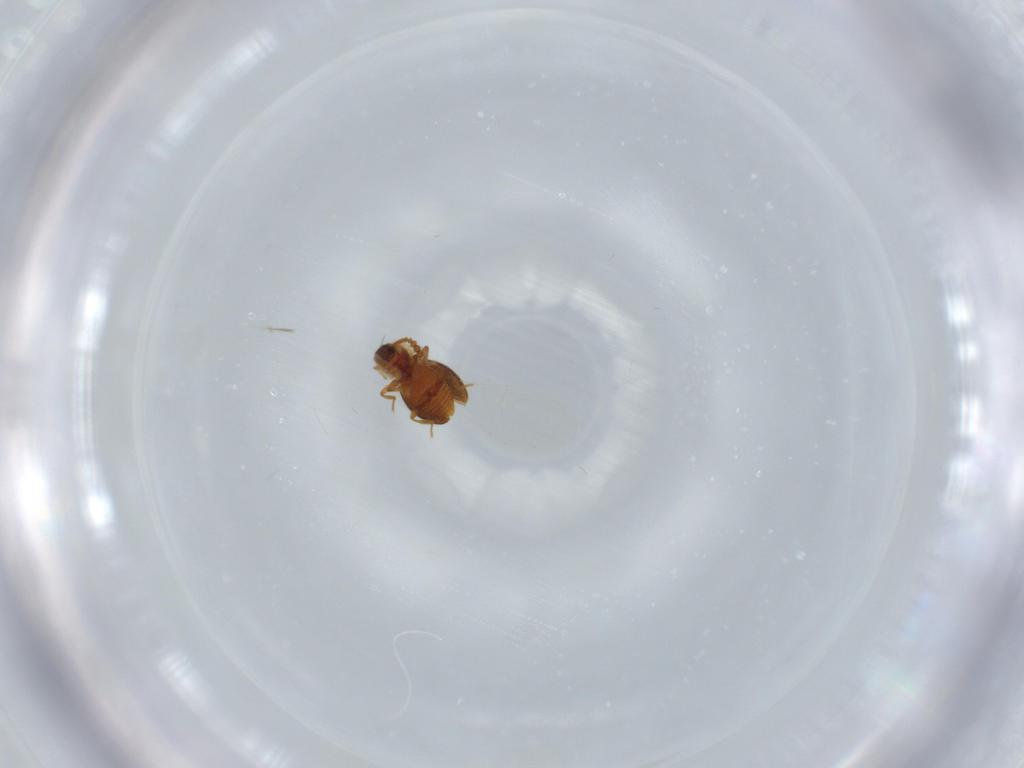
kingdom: Animalia
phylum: Arthropoda
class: Insecta
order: Coleoptera
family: Staphylinidae
